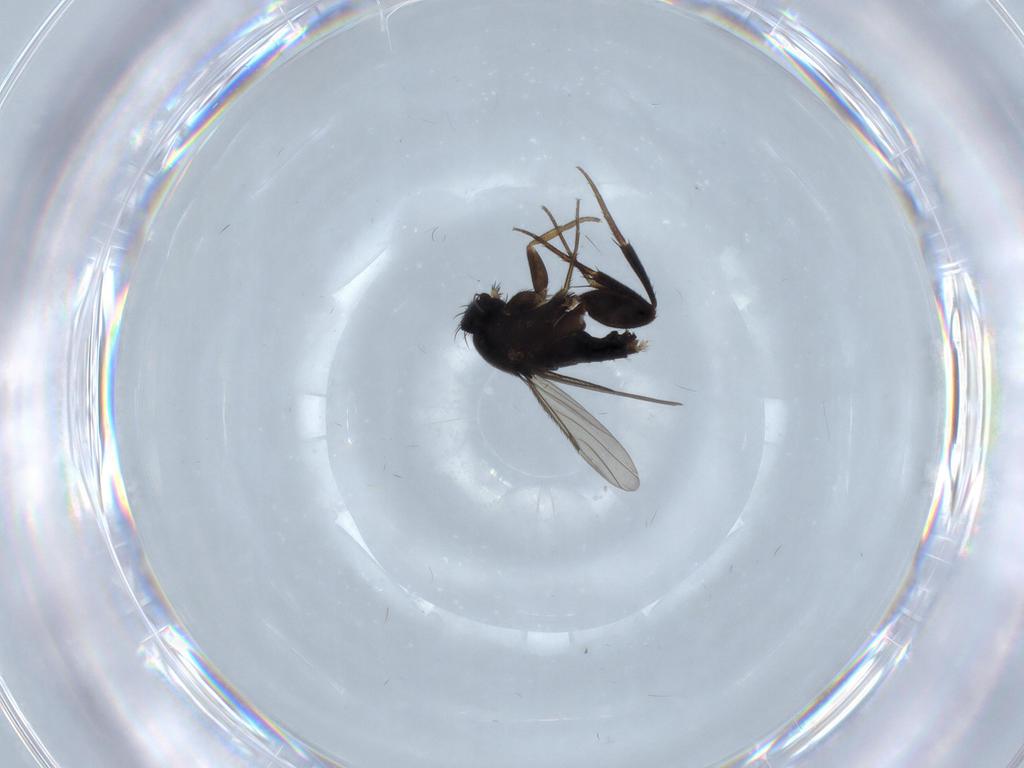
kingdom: Animalia
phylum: Arthropoda
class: Insecta
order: Diptera
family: Phoridae
